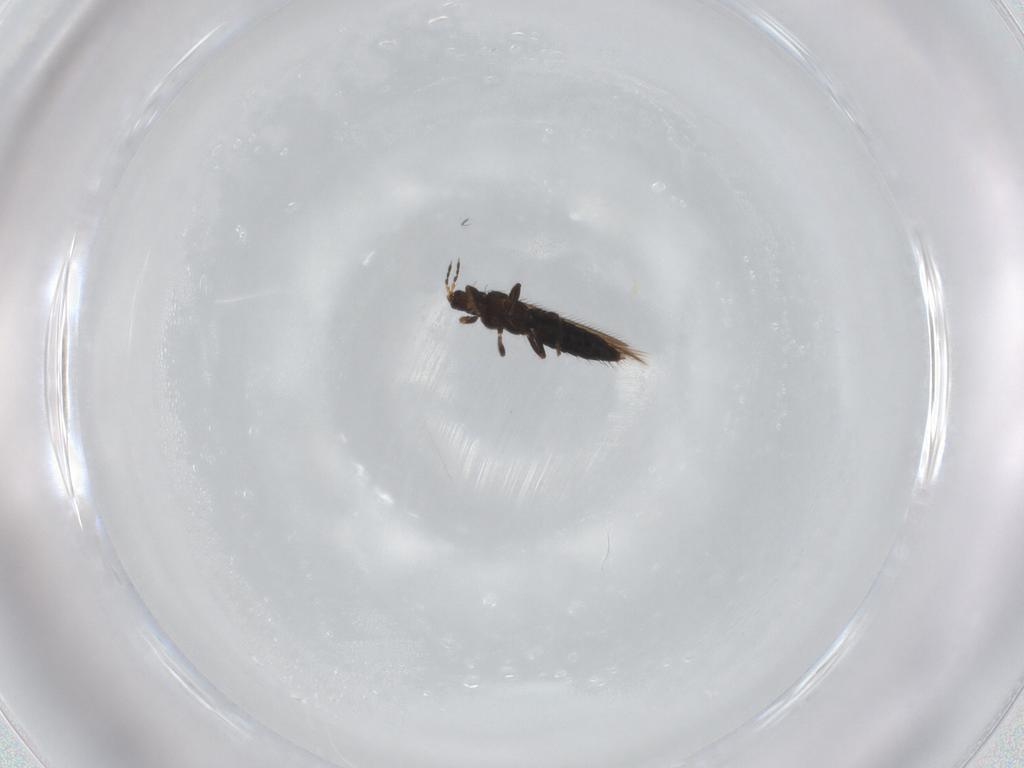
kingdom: Animalia
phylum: Arthropoda
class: Insecta
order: Thysanoptera
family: Thripidae
